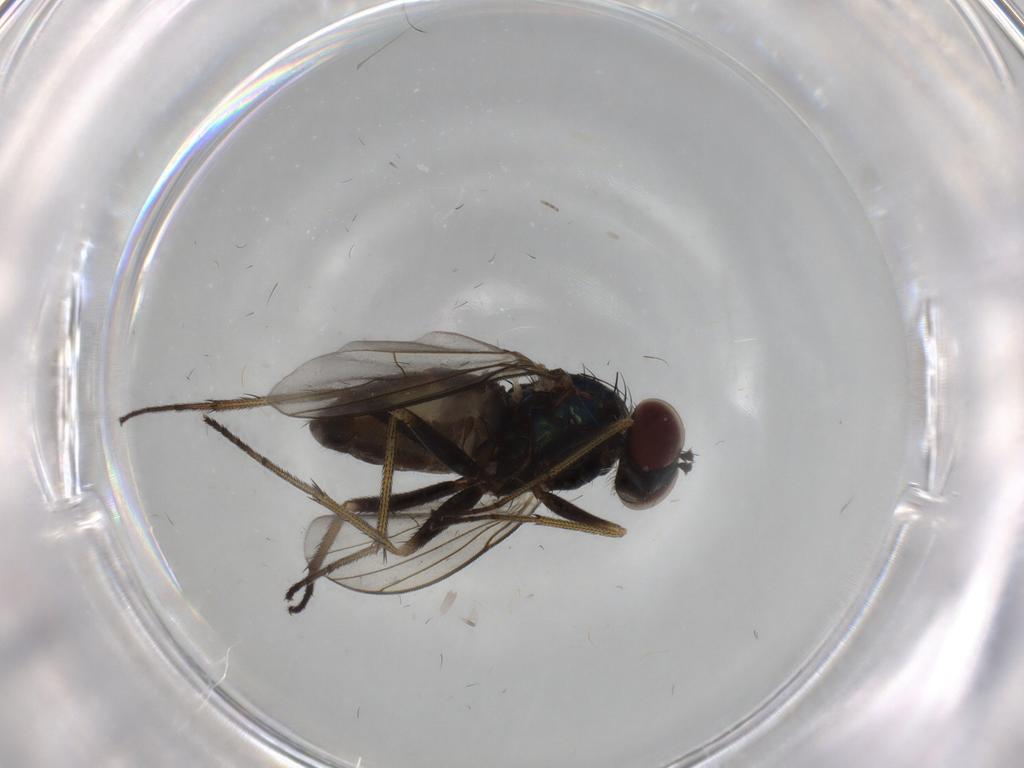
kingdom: Animalia
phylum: Arthropoda
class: Insecta
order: Diptera
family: Dolichopodidae
